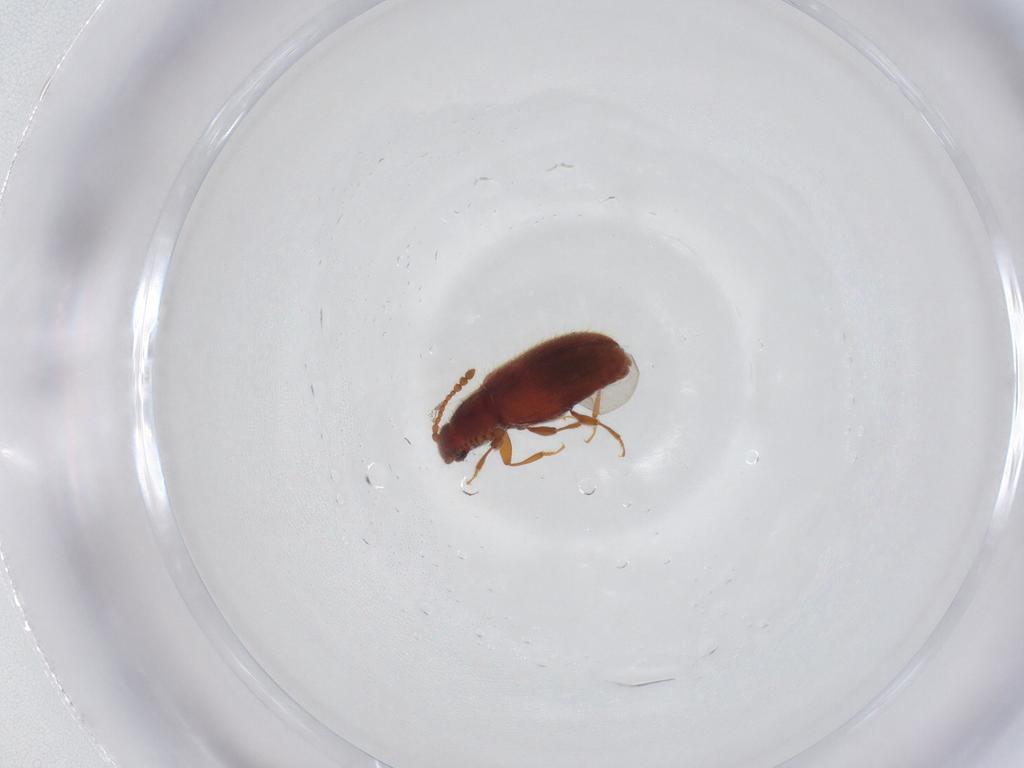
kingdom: Animalia
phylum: Arthropoda
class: Insecta
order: Coleoptera
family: Cryptophagidae
